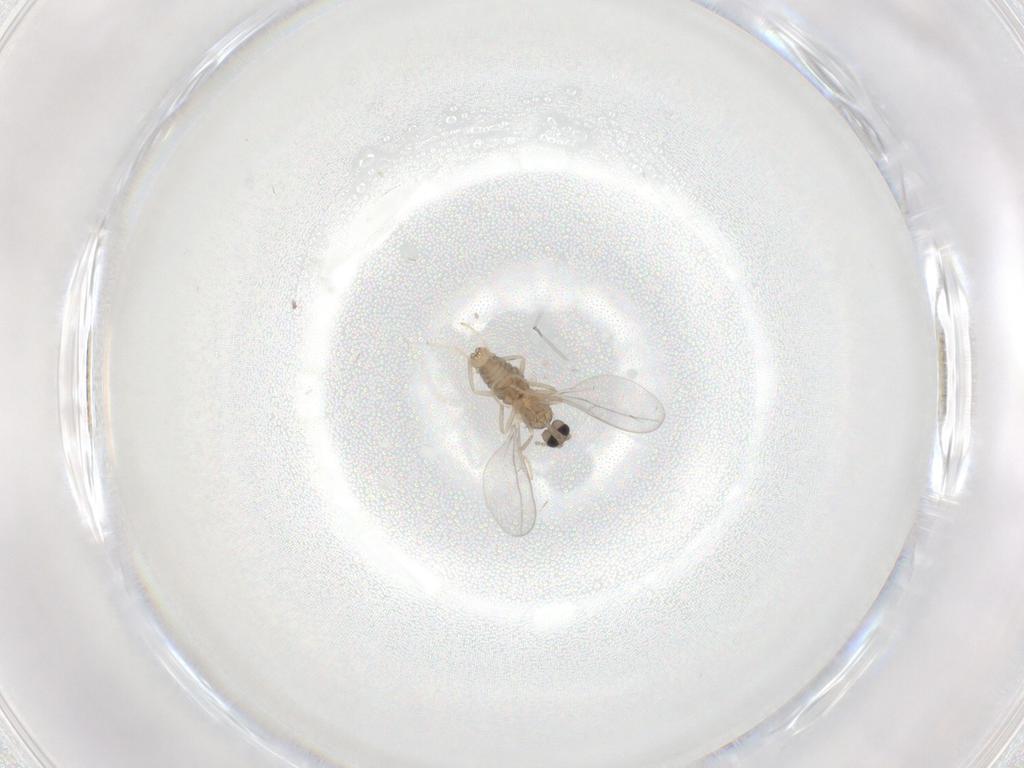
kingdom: Animalia
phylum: Arthropoda
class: Insecta
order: Diptera
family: Cecidomyiidae
